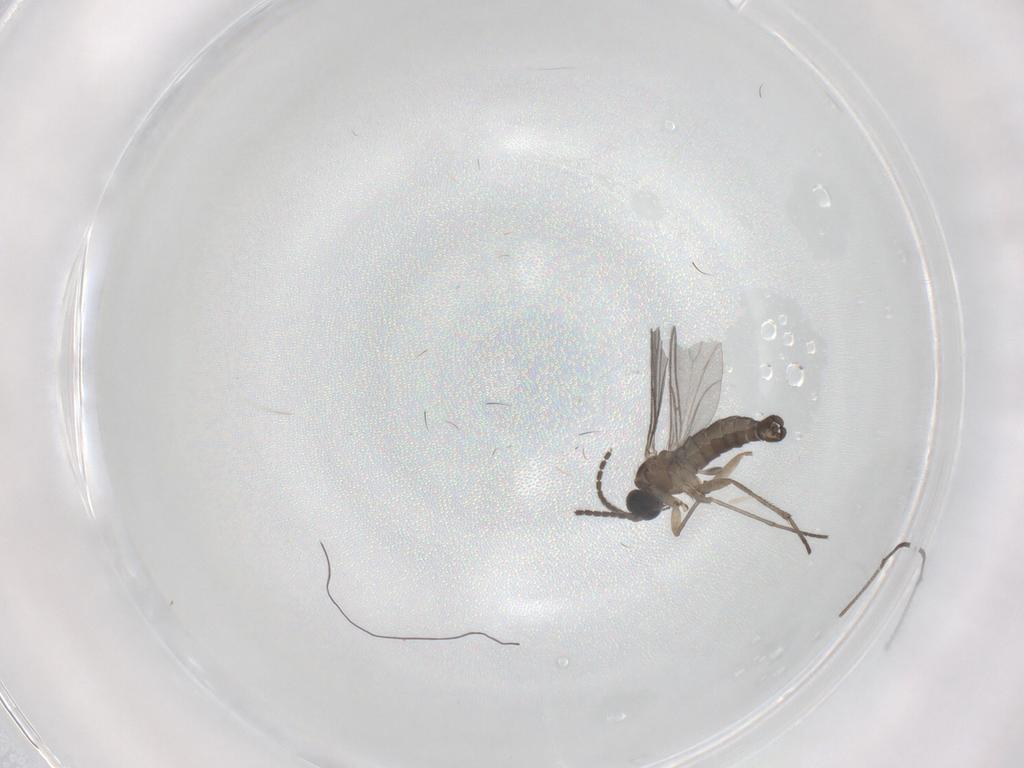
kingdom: Animalia
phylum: Arthropoda
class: Insecta
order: Diptera
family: Sciaridae
